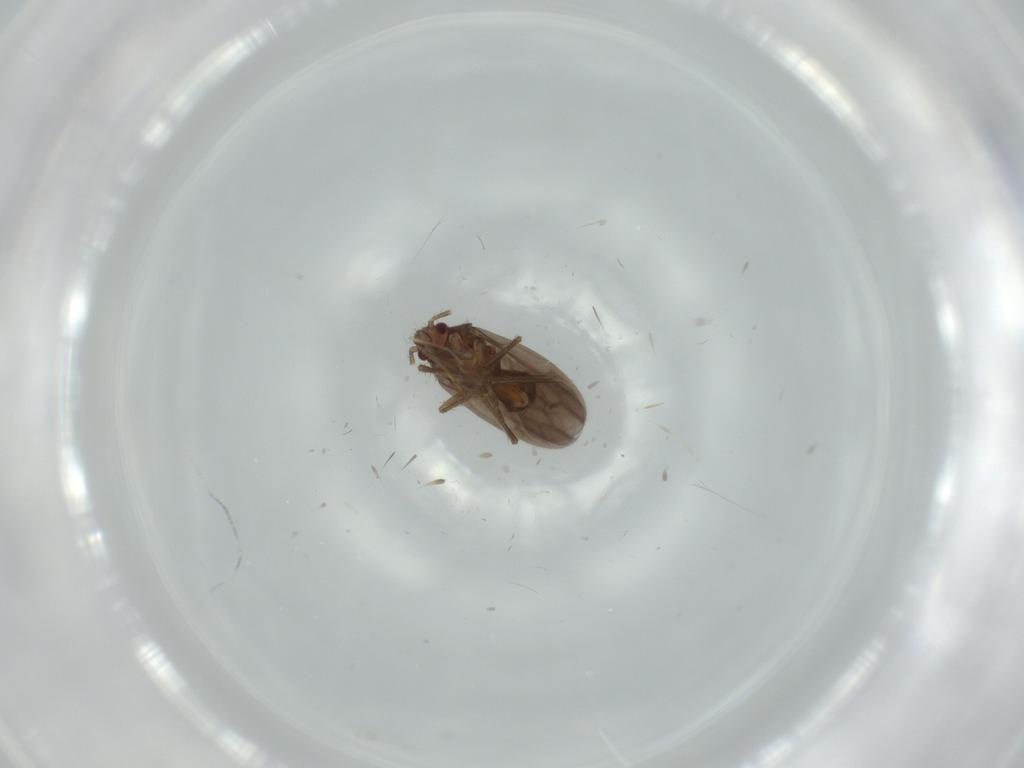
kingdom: Animalia
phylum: Arthropoda
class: Insecta
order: Hemiptera
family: Ceratocombidae
